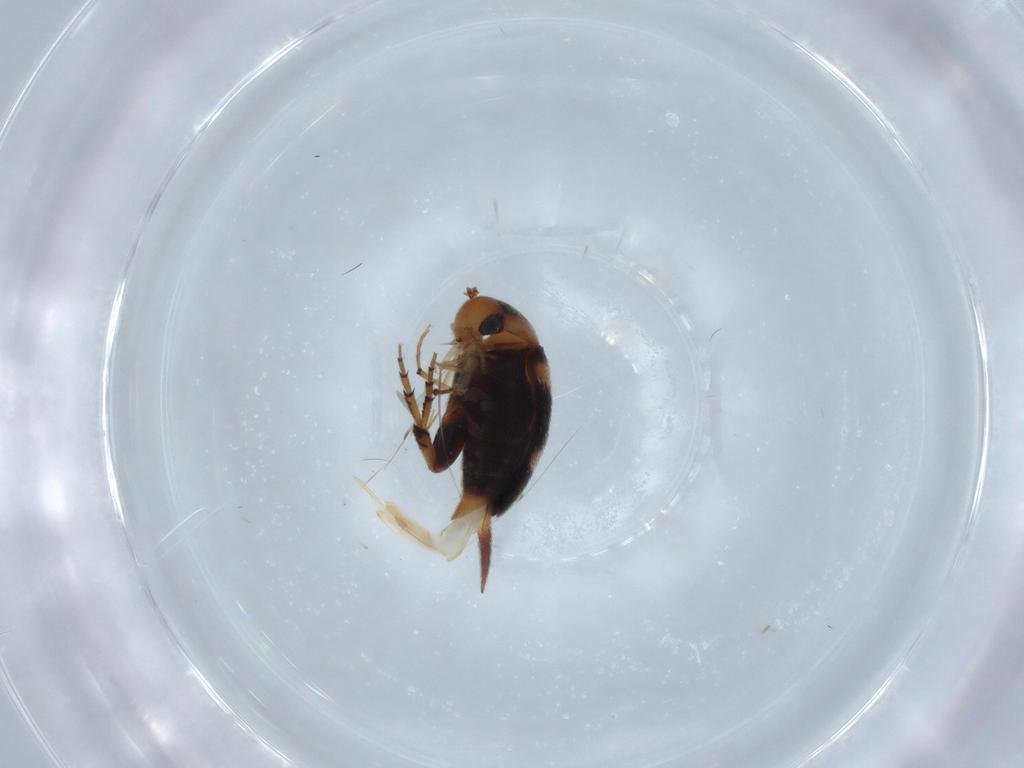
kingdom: Animalia
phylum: Arthropoda
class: Insecta
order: Coleoptera
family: Mordellidae
